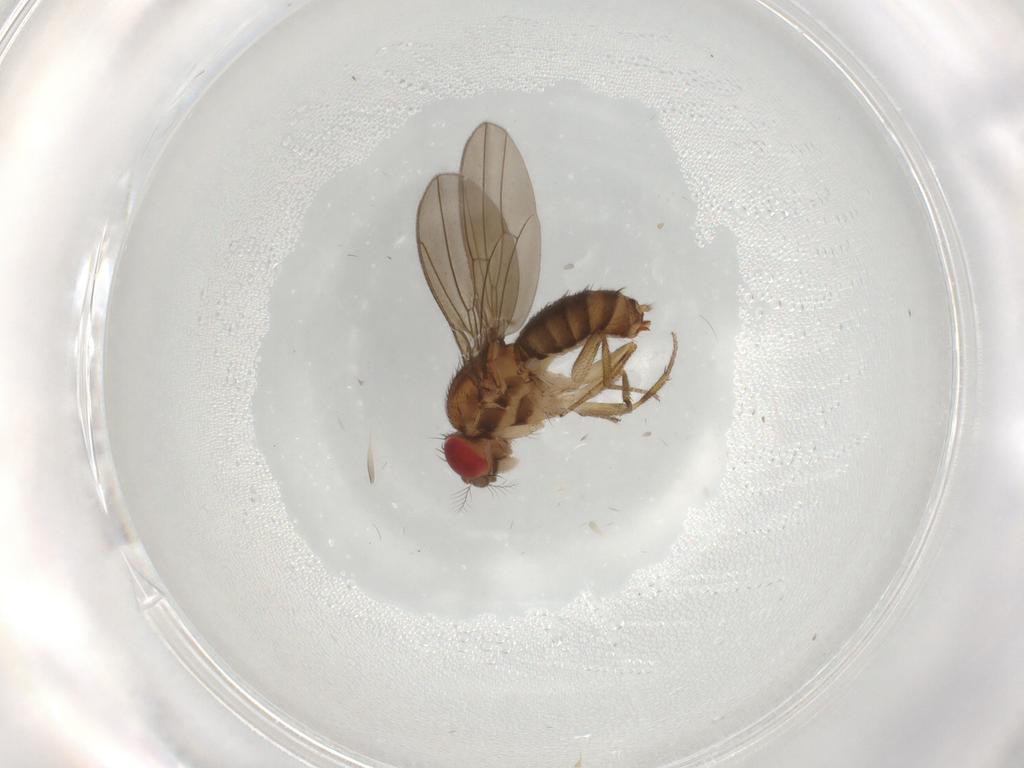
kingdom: Animalia
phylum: Arthropoda
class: Insecta
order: Diptera
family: Drosophilidae
